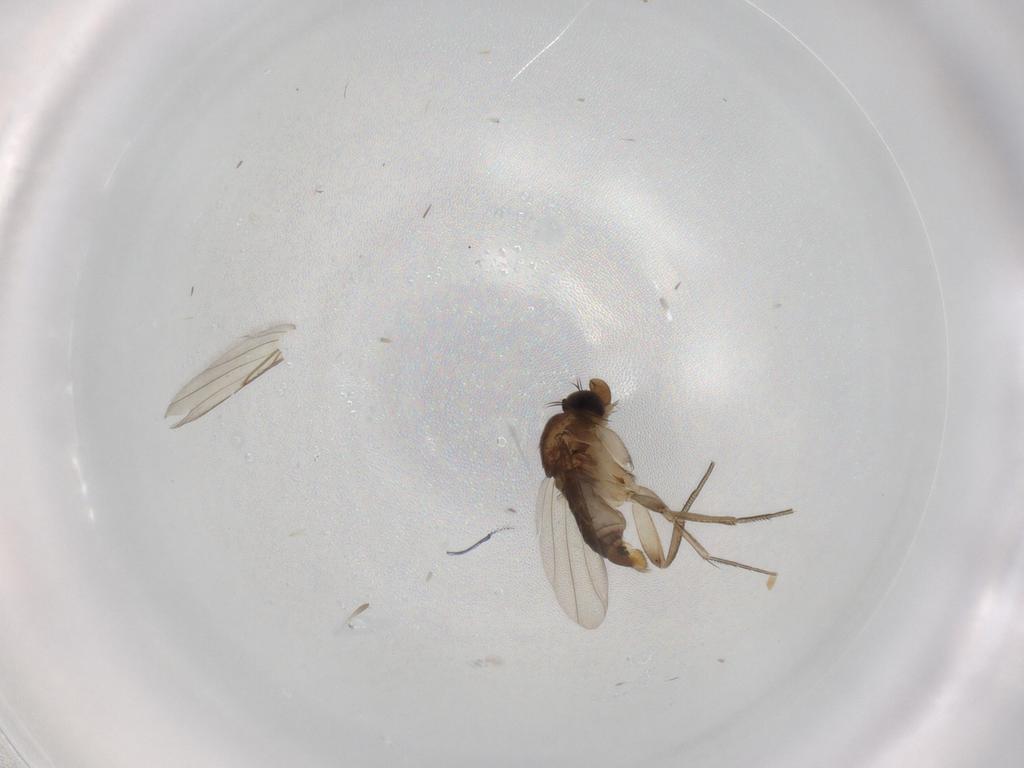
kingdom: Animalia
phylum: Arthropoda
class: Insecta
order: Diptera
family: Phoridae
